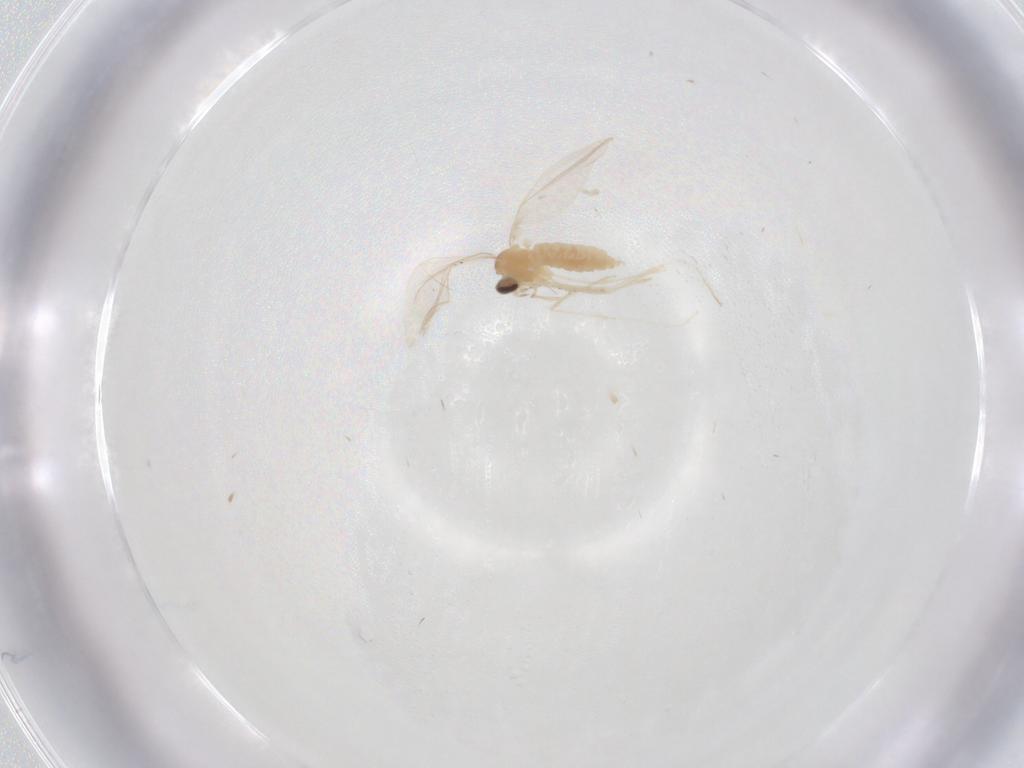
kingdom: Animalia
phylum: Arthropoda
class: Insecta
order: Diptera
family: Cecidomyiidae
